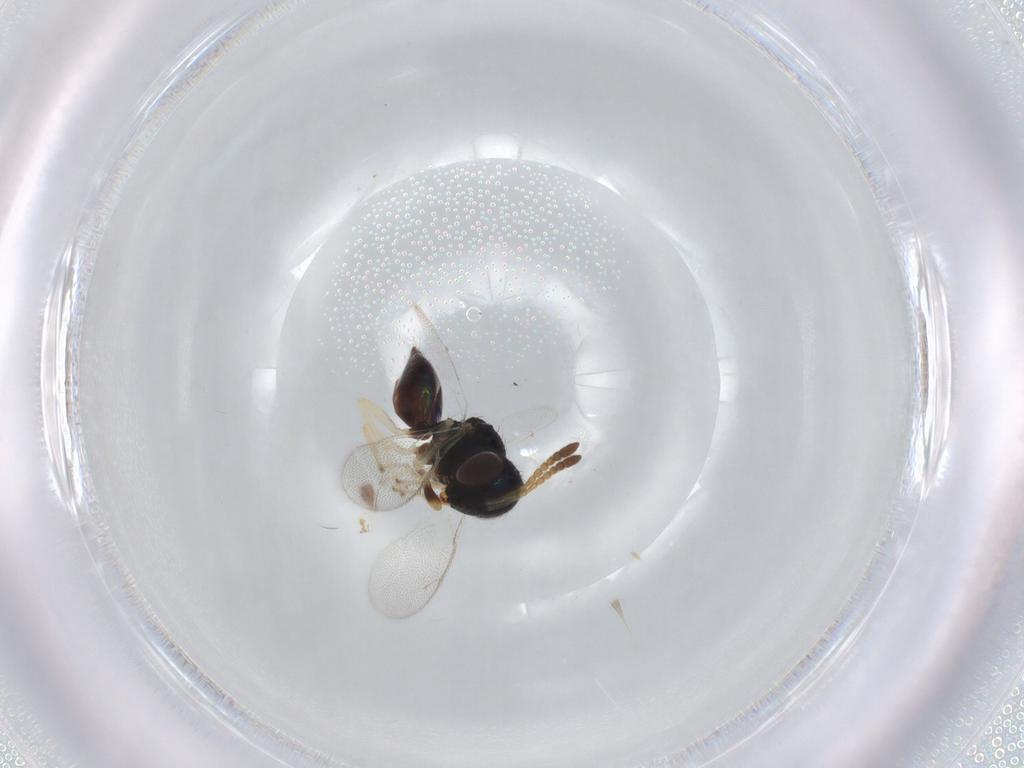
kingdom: Animalia
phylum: Arthropoda
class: Insecta
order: Hymenoptera
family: Pteromalidae
